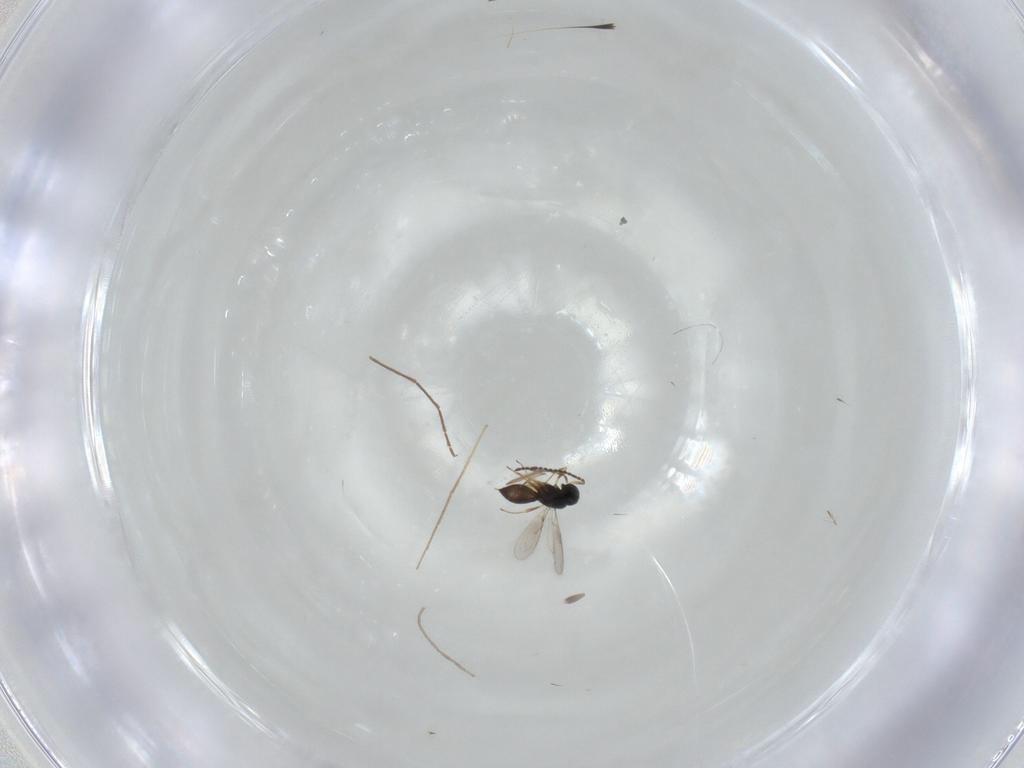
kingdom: Animalia
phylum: Arthropoda
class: Insecta
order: Hymenoptera
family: Scelionidae
